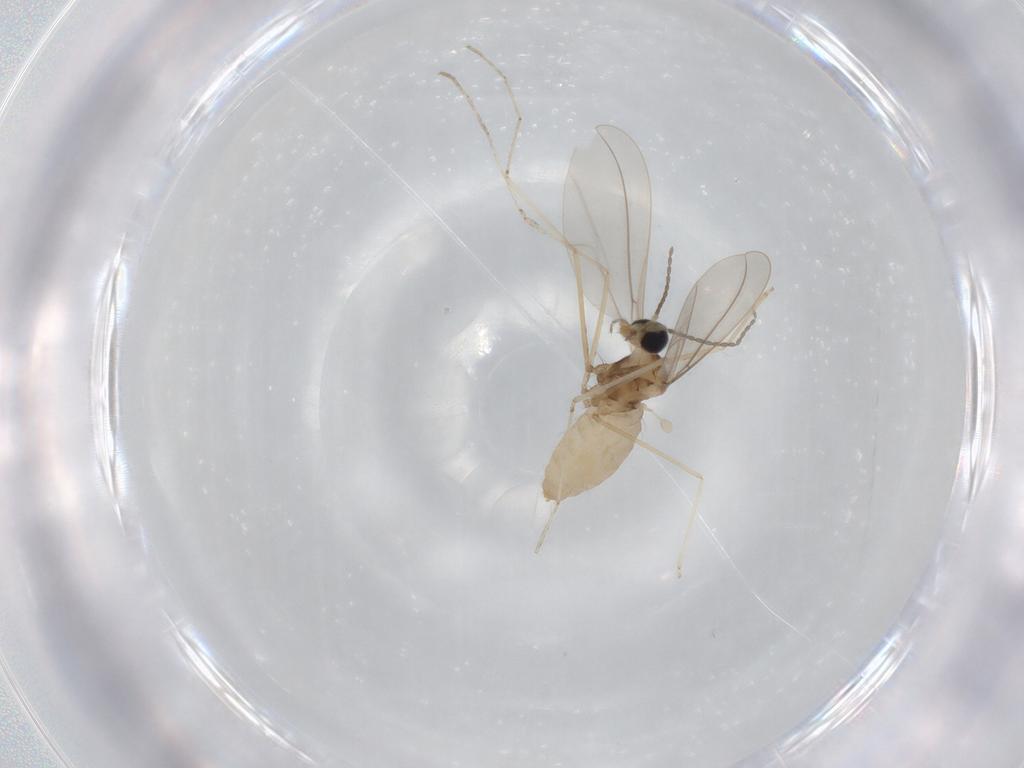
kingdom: Animalia
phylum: Arthropoda
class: Insecta
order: Diptera
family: Cecidomyiidae
